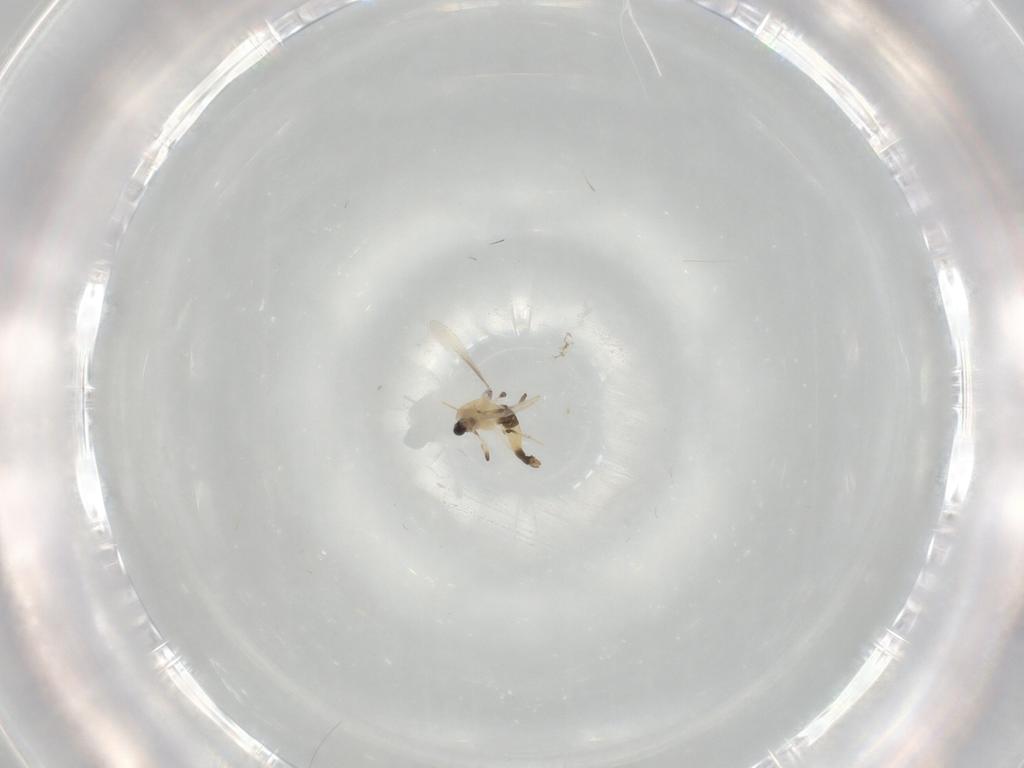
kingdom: Animalia
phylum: Arthropoda
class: Insecta
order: Diptera
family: Chironomidae
